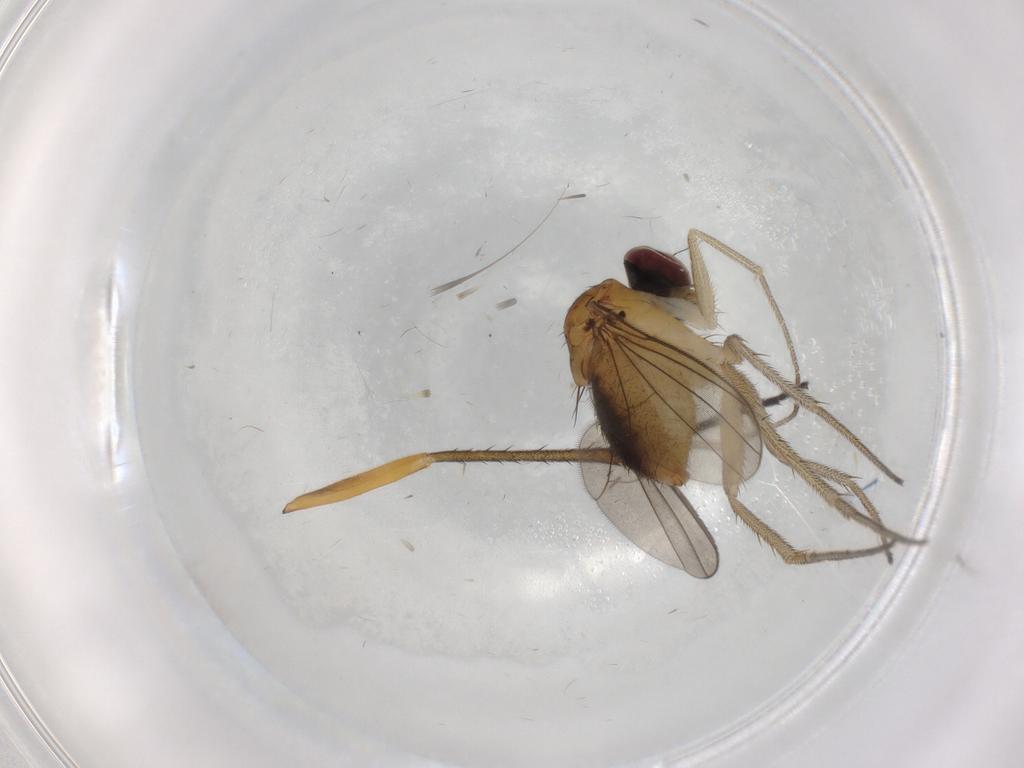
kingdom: Animalia
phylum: Arthropoda
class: Insecta
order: Diptera
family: Dolichopodidae
